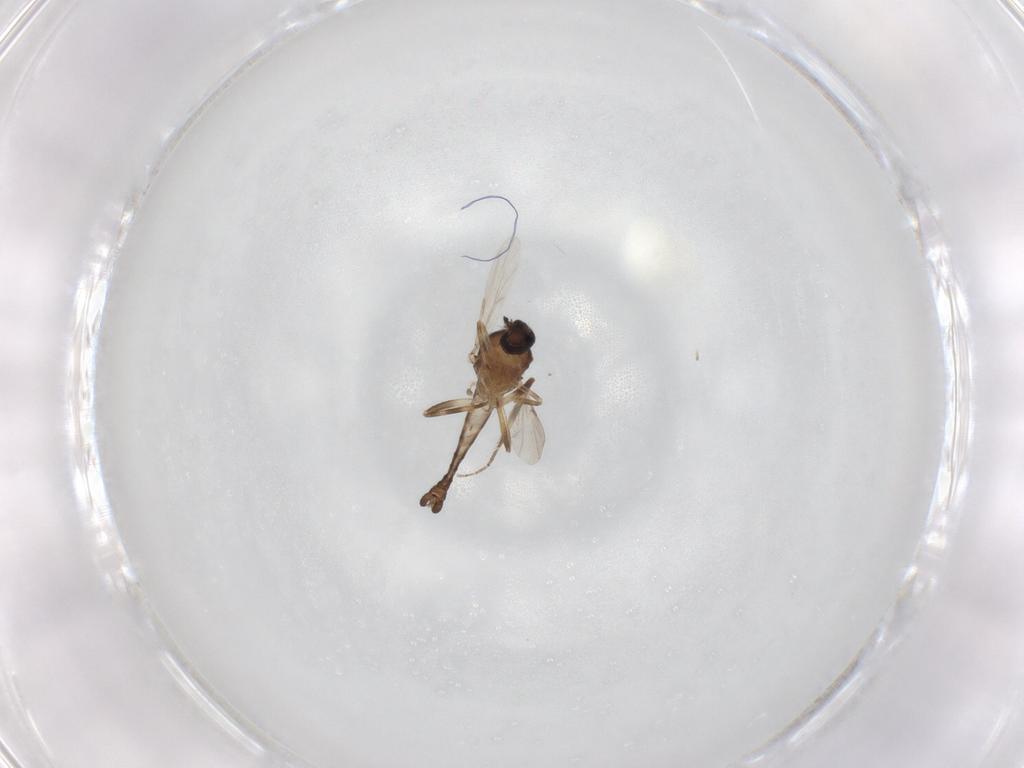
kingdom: Animalia
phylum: Arthropoda
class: Insecta
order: Diptera
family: Ceratopogonidae
